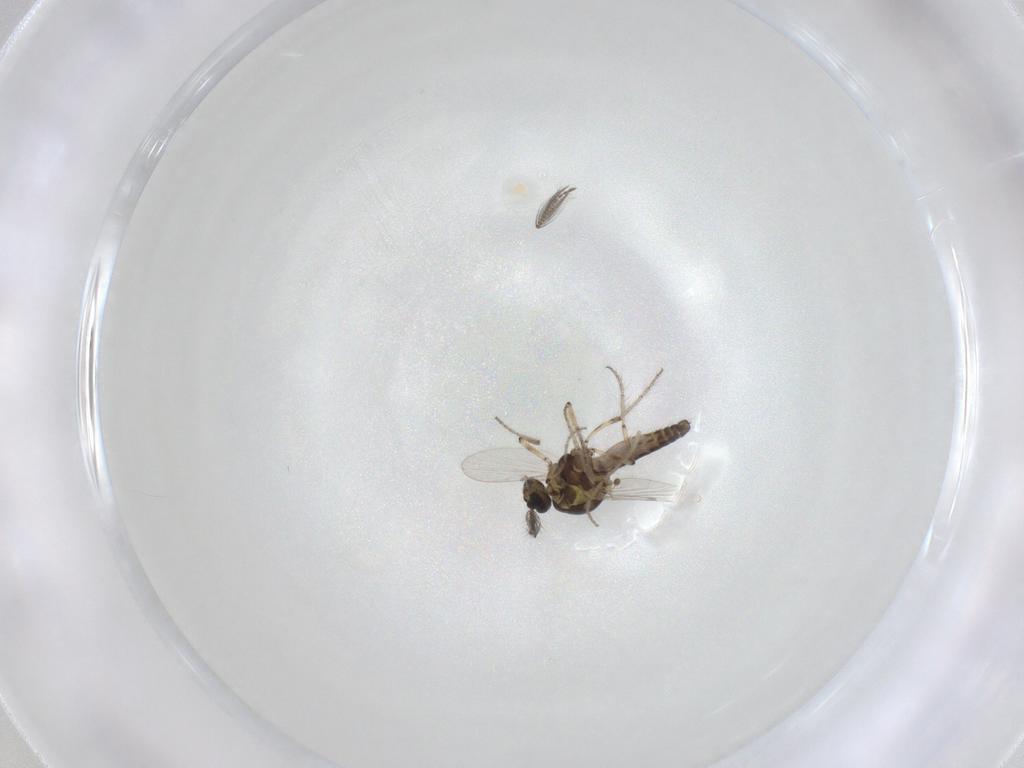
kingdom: Animalia
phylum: Arthropoda
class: Insecta
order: Diptera
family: Ceratopogonidae
